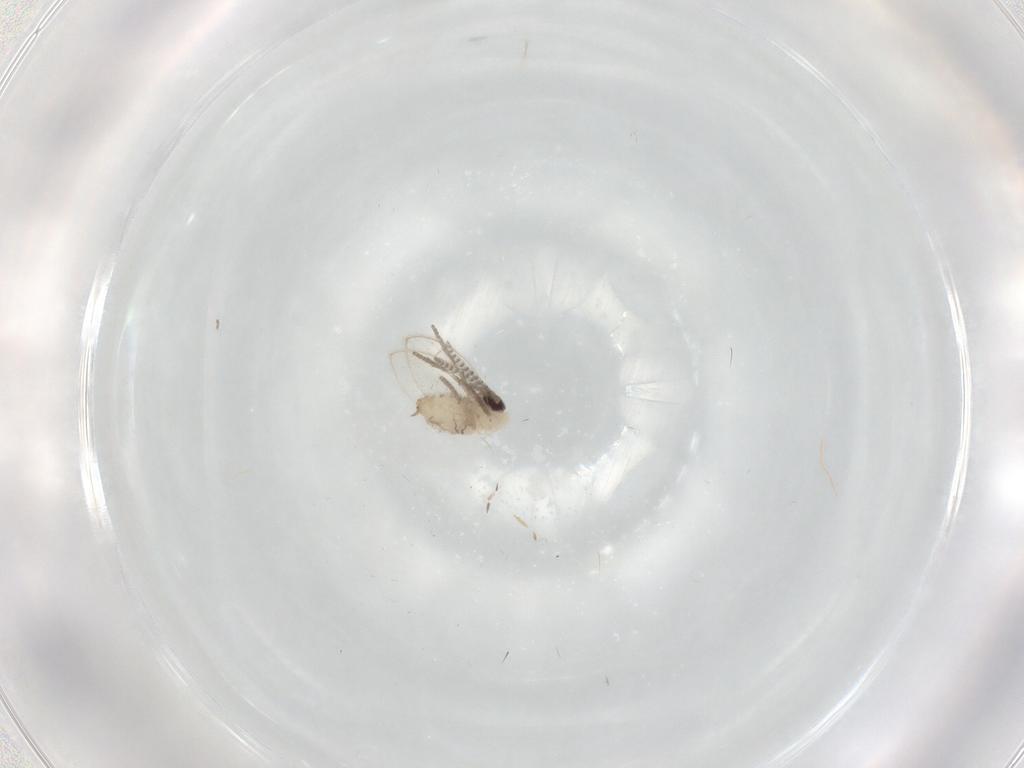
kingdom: Animalia
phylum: Arthropoda
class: Insecta
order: Diptera
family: Psychodidae
